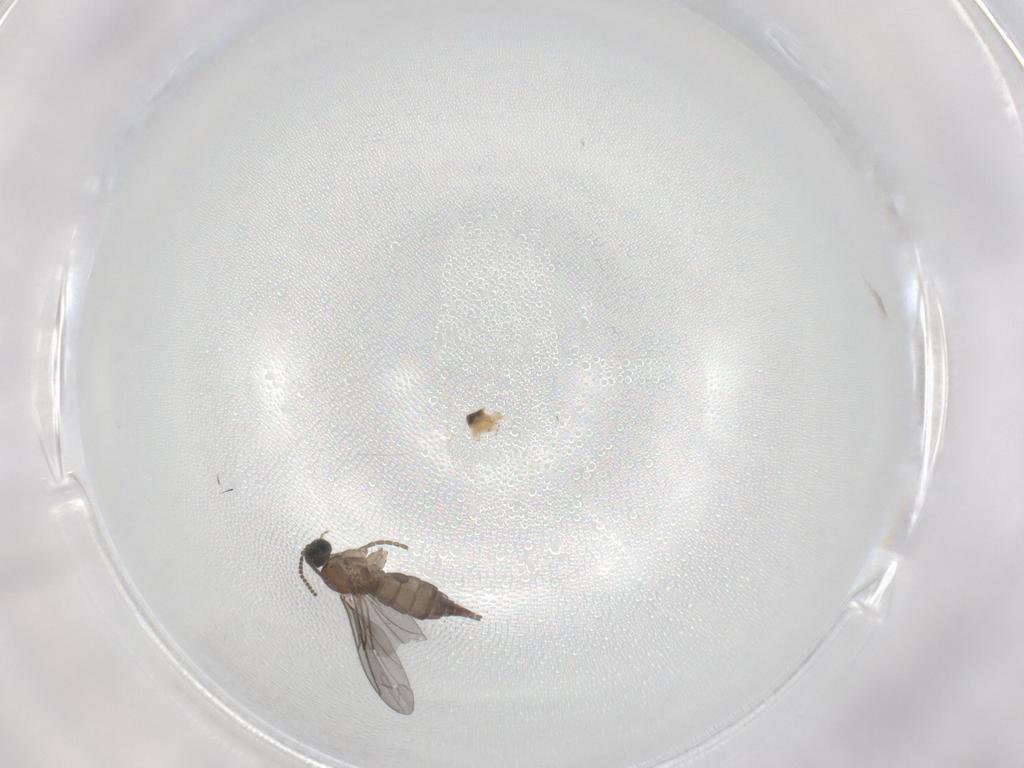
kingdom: Animalia
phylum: Arthropoda
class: Insecta
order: Diptera
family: Sciaridae
